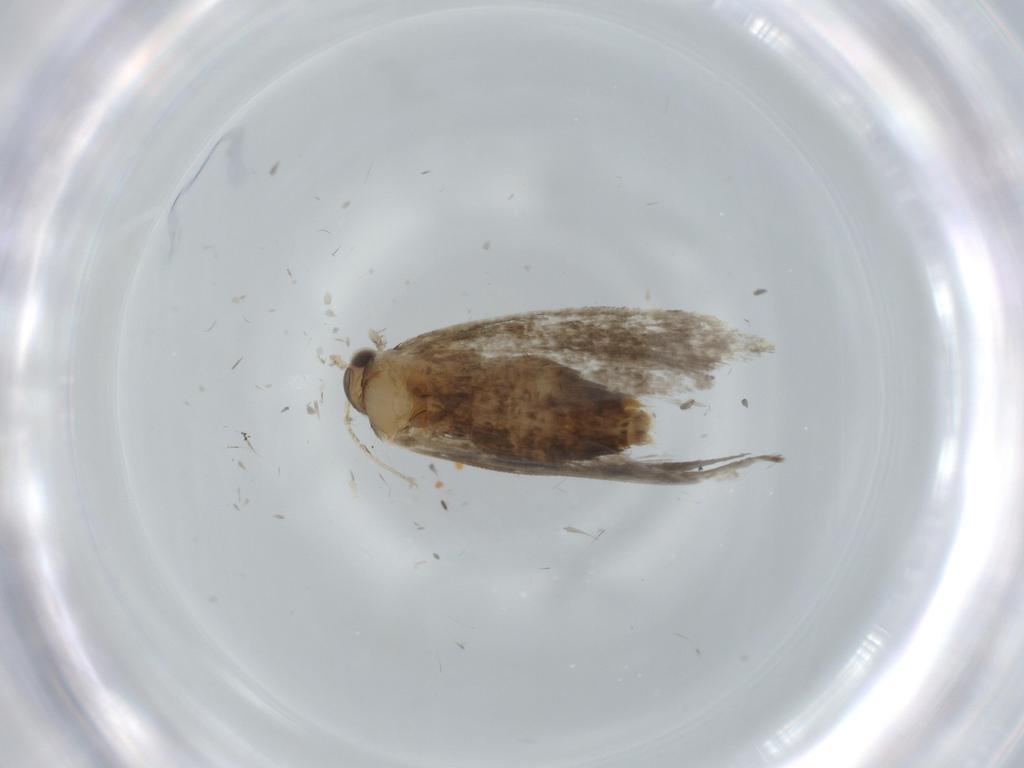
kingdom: Animalia
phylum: Arthropoda
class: Insecta
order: Lepidoptera
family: Tineidae
